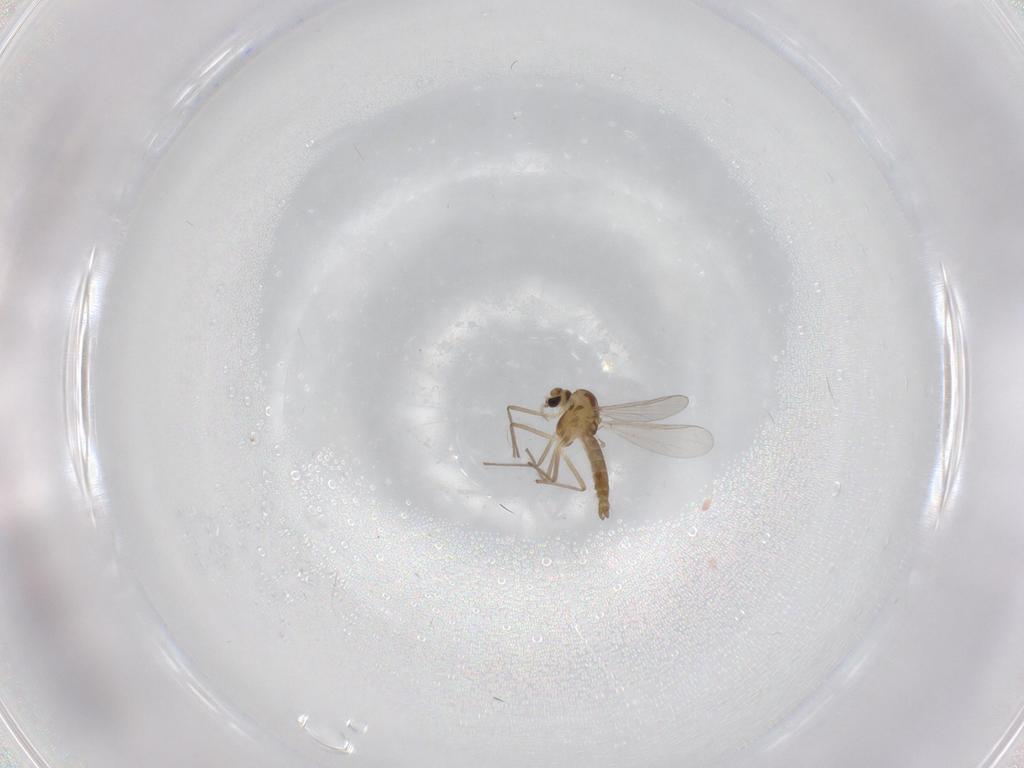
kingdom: Animalia
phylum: Arthropoda
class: Insecta
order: Diptera
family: Chironomidae
